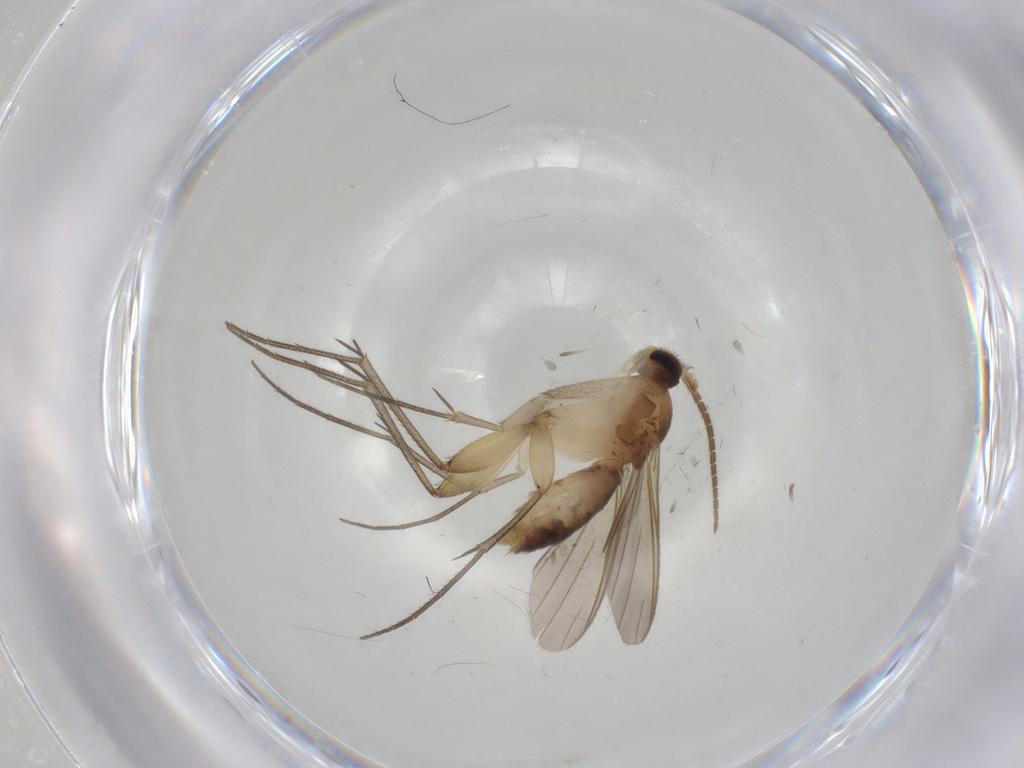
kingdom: Animalia
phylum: Arthropoda
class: Insecta
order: Diptera
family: Mycetophilidae
